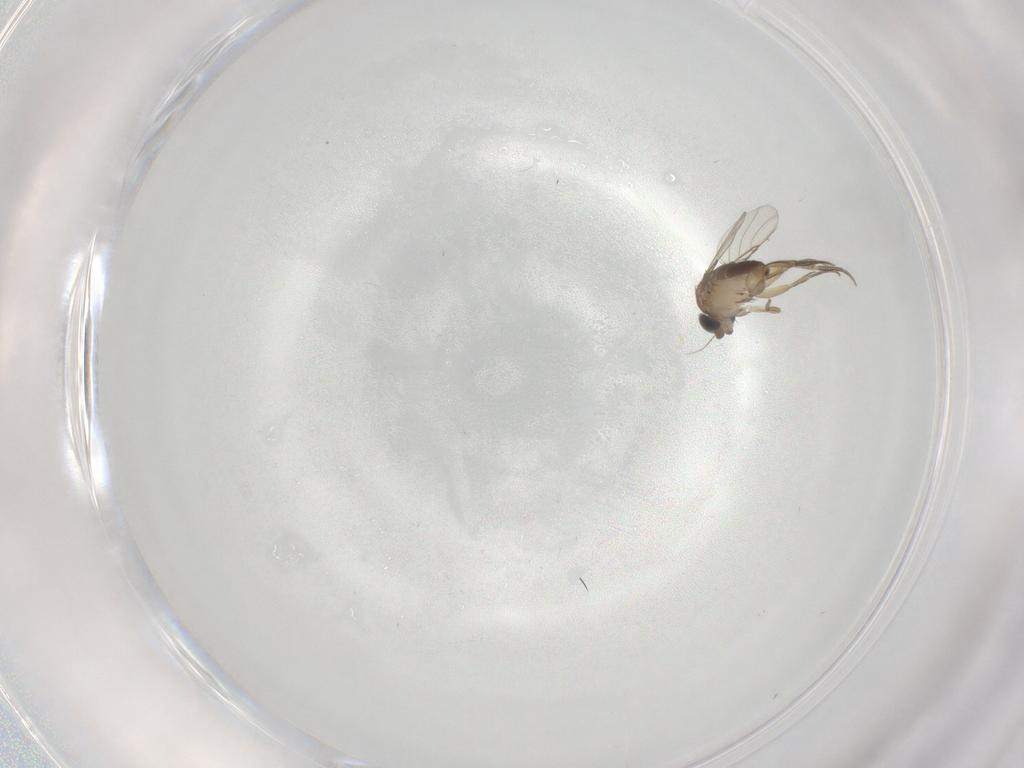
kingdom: Animalia
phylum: Arthropoda
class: Insecta
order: Diptera
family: Phoridae
